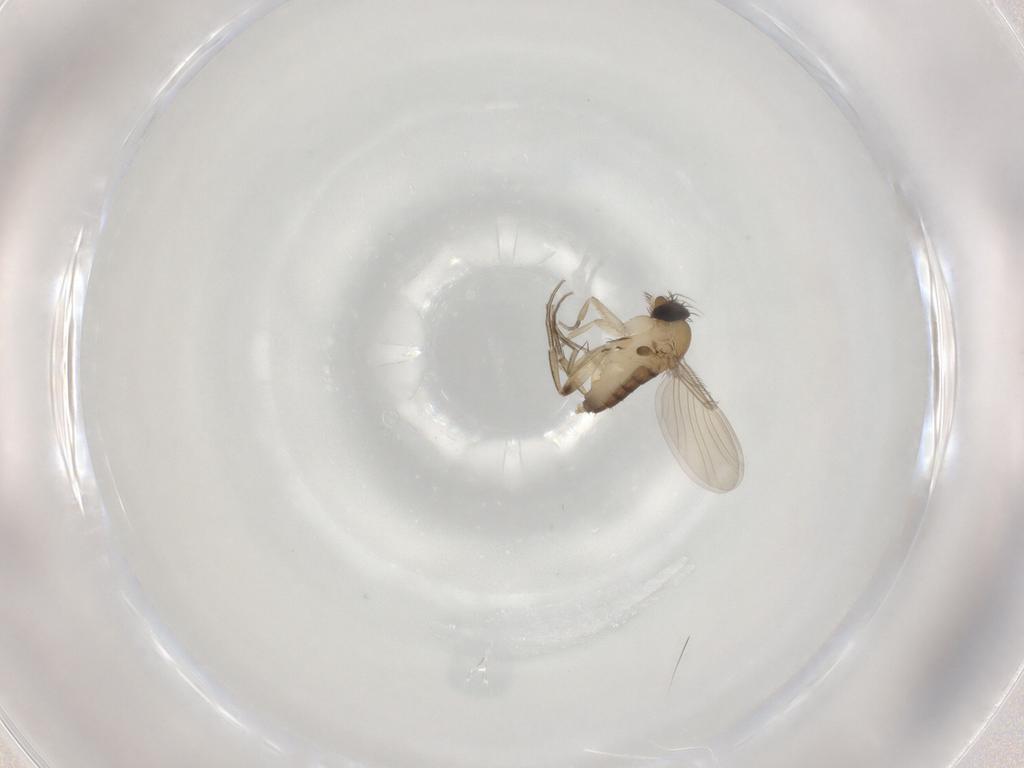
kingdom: Animalia
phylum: Arthropoda
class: Insecta
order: Diptera
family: Phoridae
